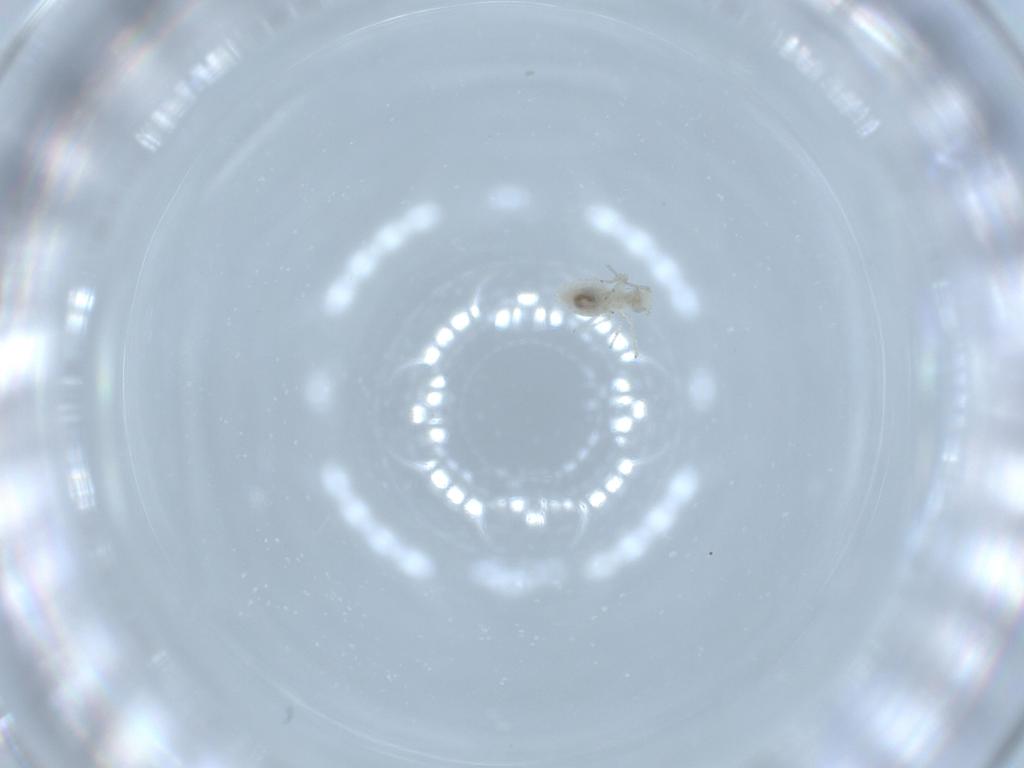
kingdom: Animalia
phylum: Arthropoda
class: Insecta
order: Psocodea
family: Caeciliusidae
